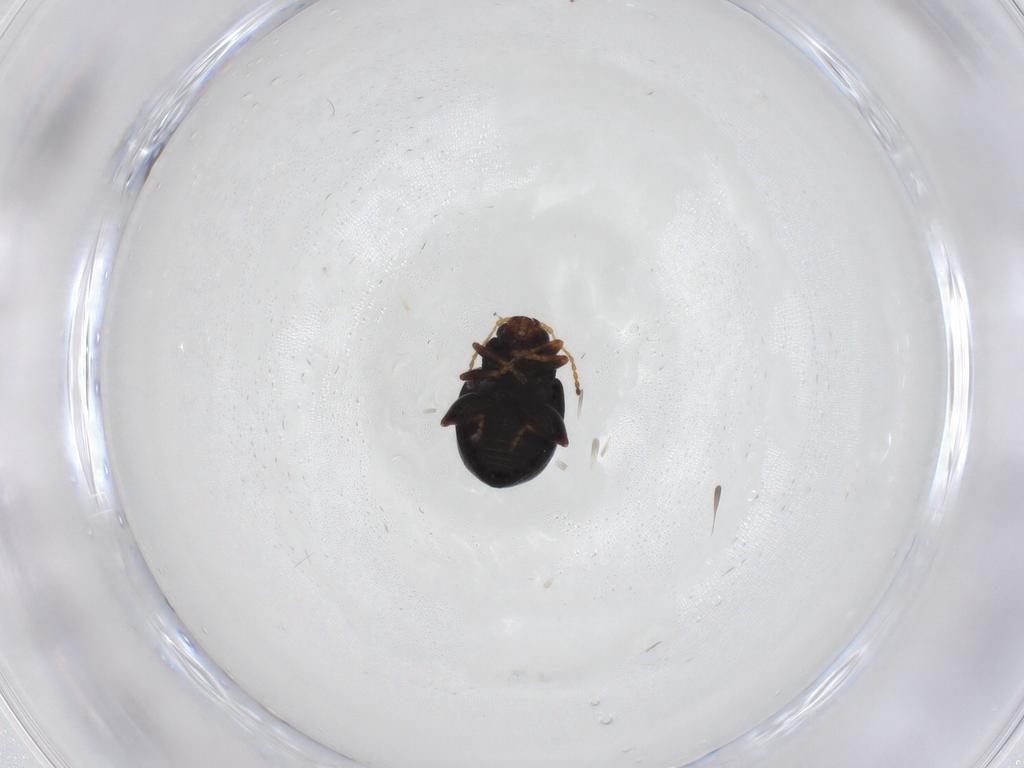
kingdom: Animalia
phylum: Arthropoda
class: Insecta
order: Coleoptera
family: Chrysomelidae
